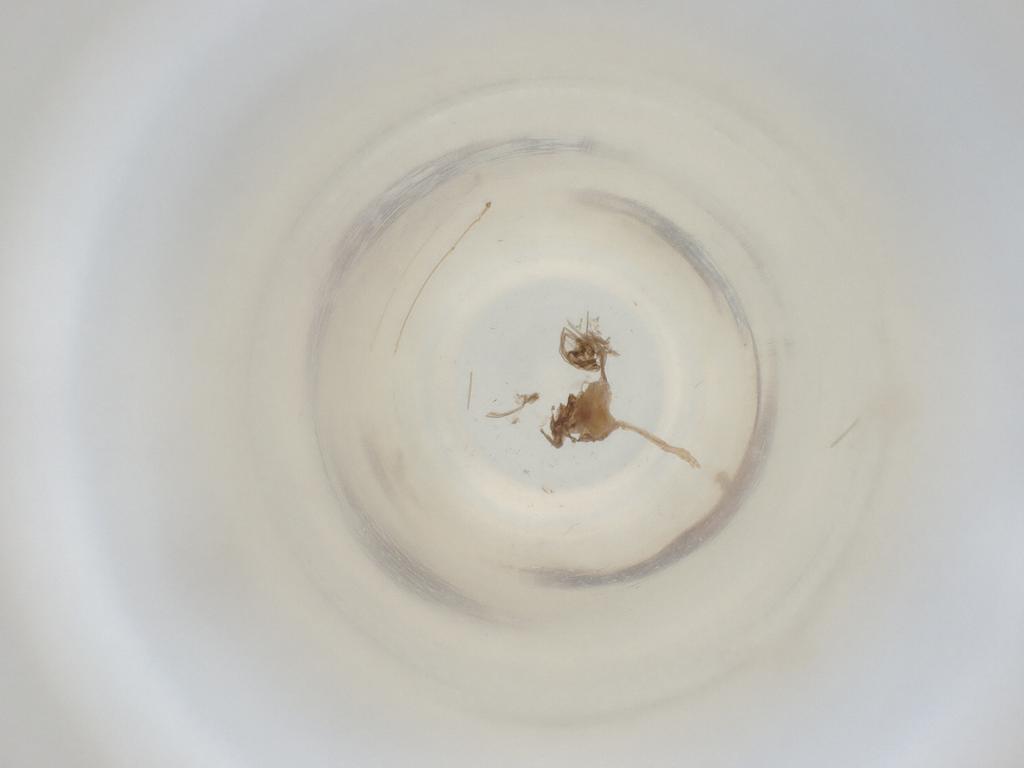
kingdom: Animalia
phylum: Arthropoda
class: Insecta
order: Diptera
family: Cecidomyiidae
